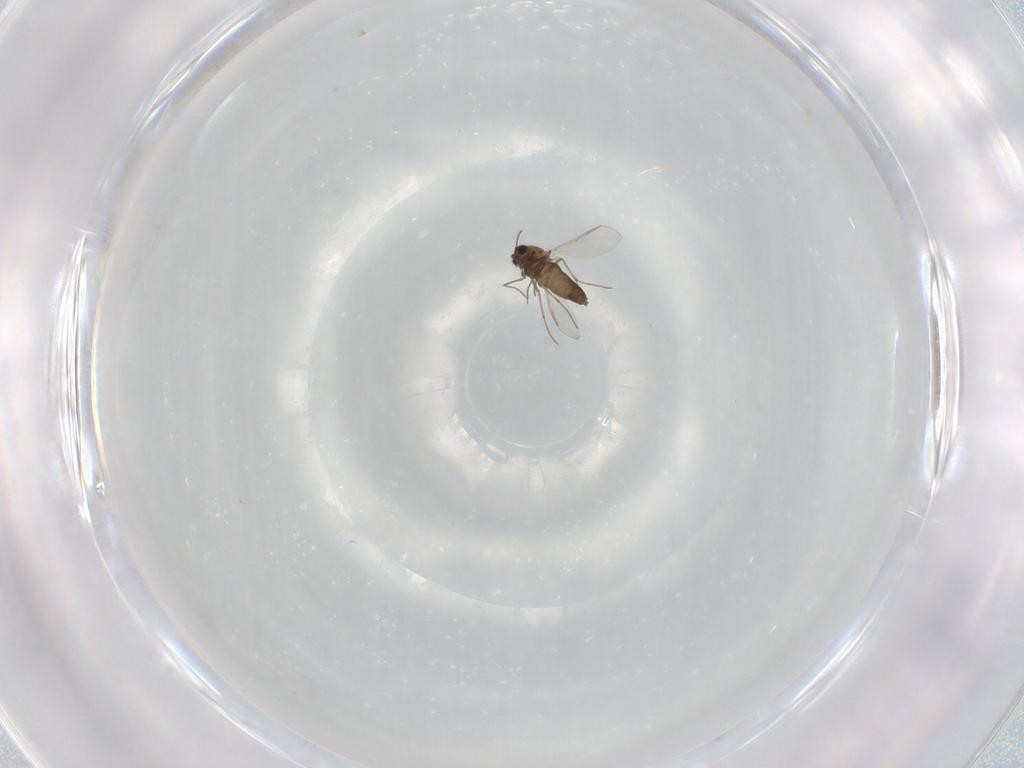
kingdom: Animalia
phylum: Arthropoda
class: Insecta
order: Diptera
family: Chironomidae
